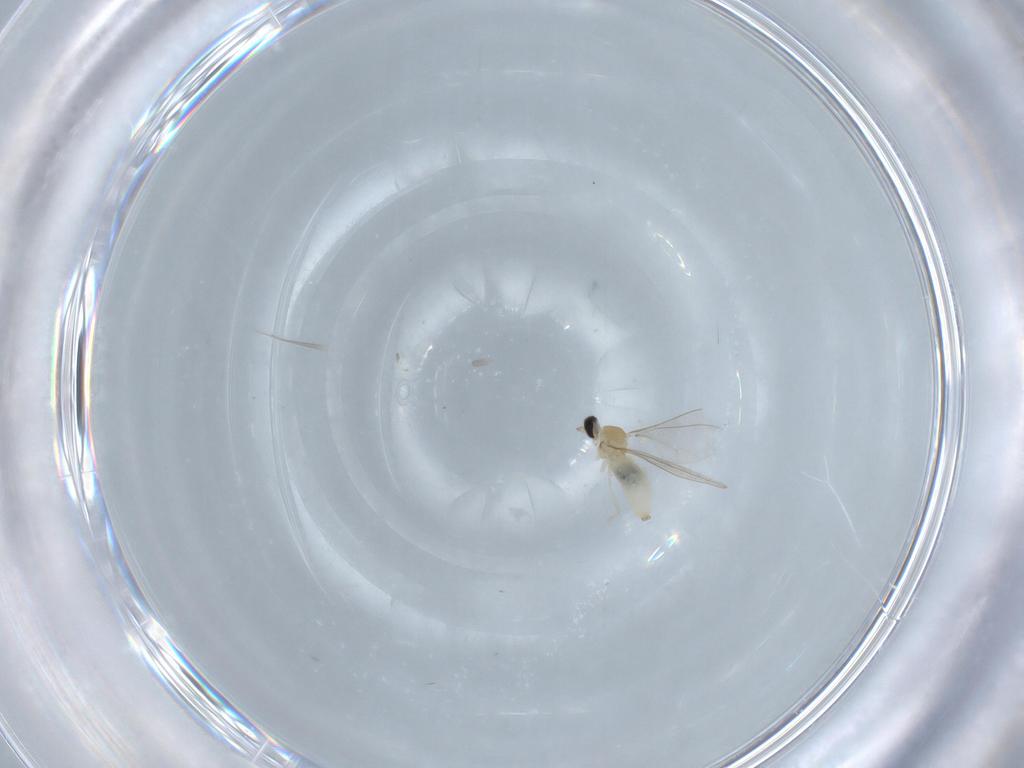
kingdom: Animalia
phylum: Arthropoda
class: Insecta
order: Diptera
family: Cecidomyiidae
